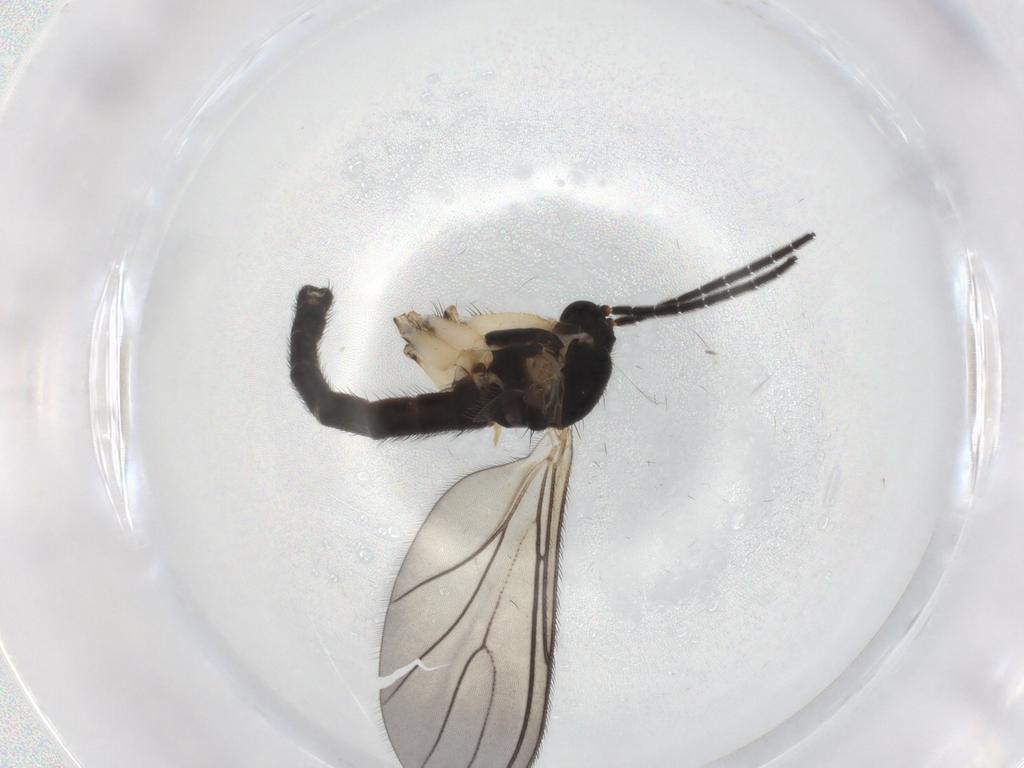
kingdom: Animalia
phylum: Arthropoda
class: Insecta
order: Diptera
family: Sciaridae
